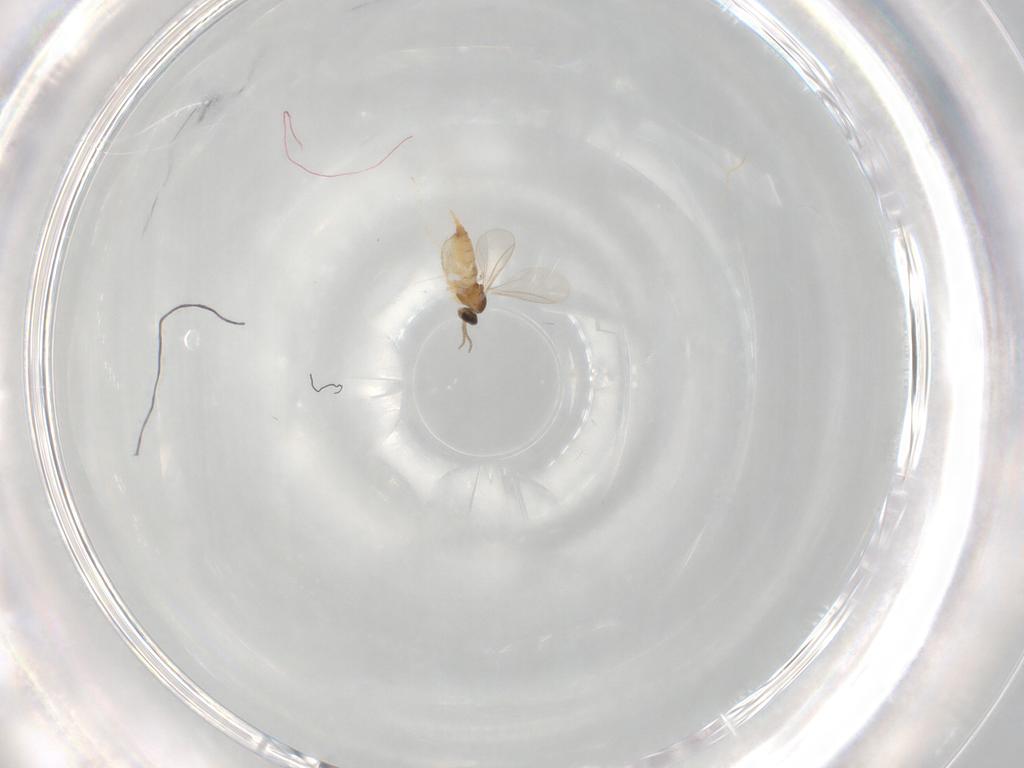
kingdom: Animalia
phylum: Arthropoda
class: Insecta
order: Diptera
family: Cecidomyiidae
